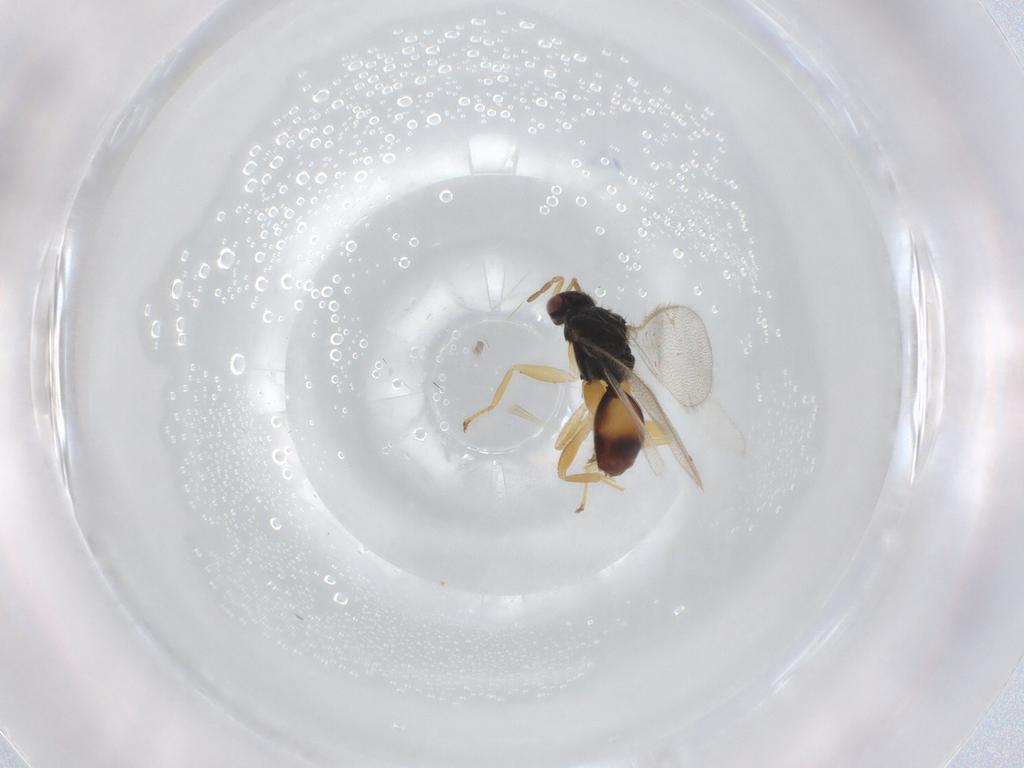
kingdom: Animalia
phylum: Arthropoda
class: Insecta
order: Hymenoptera
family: Eulophidae
